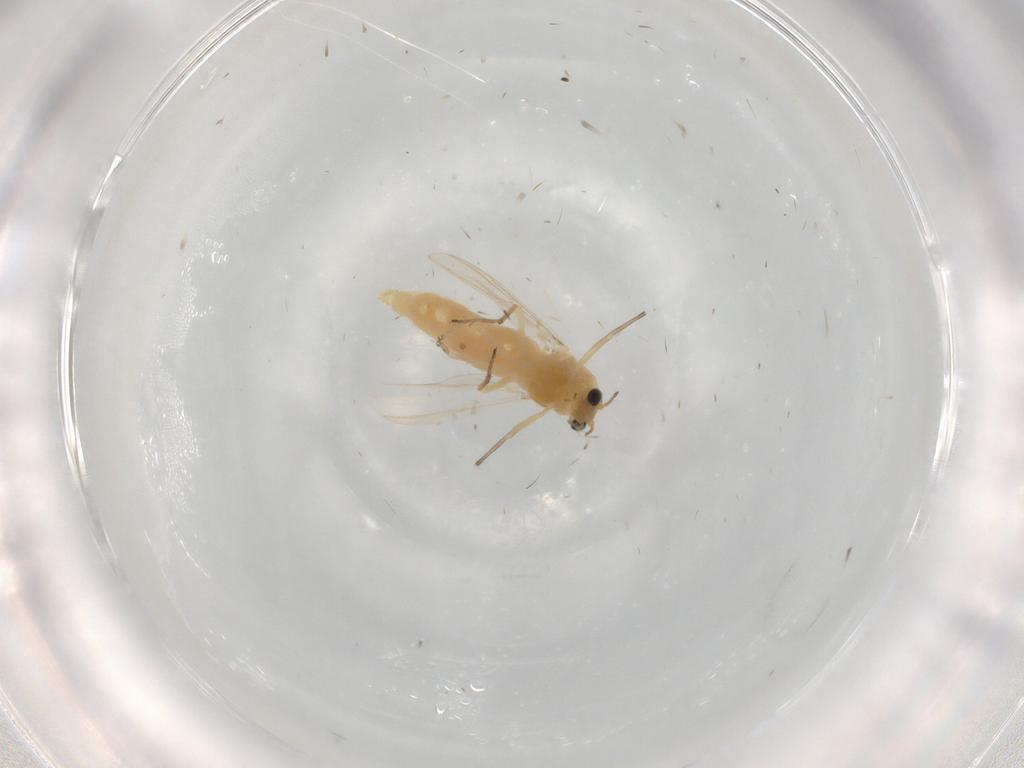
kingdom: Animalia
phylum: Arthropoda
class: Insecta
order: Diptera
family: Chironomidae
